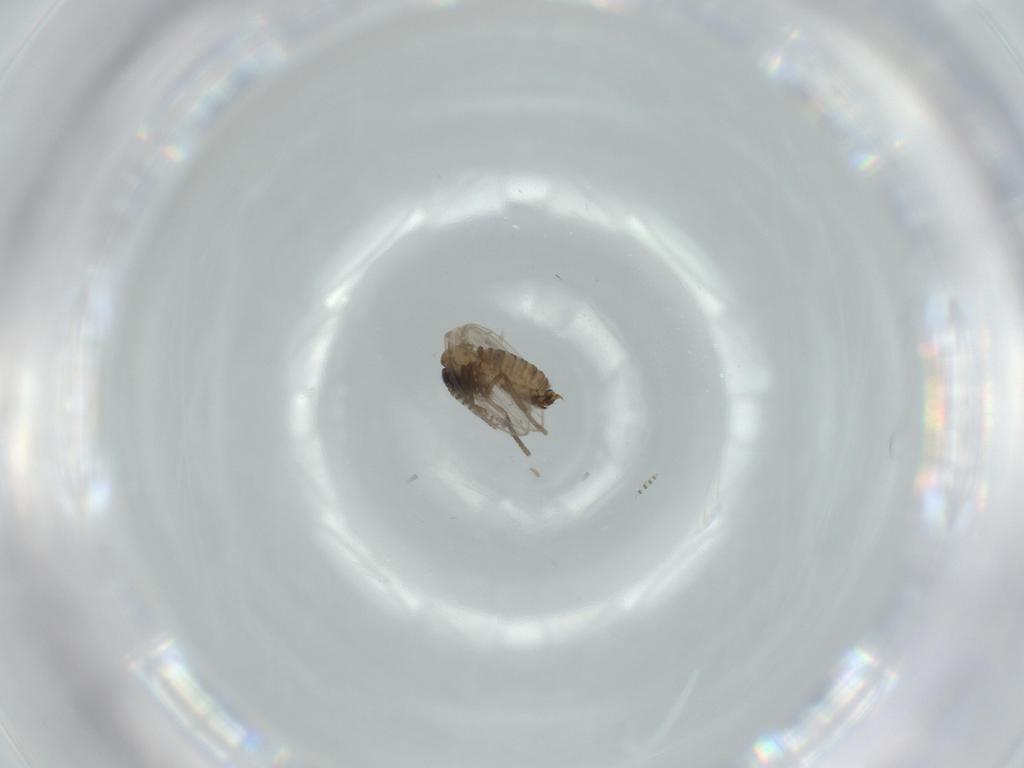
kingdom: Animalia
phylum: Arthropoda
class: Insecta
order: Diptera
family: Psychodidae
